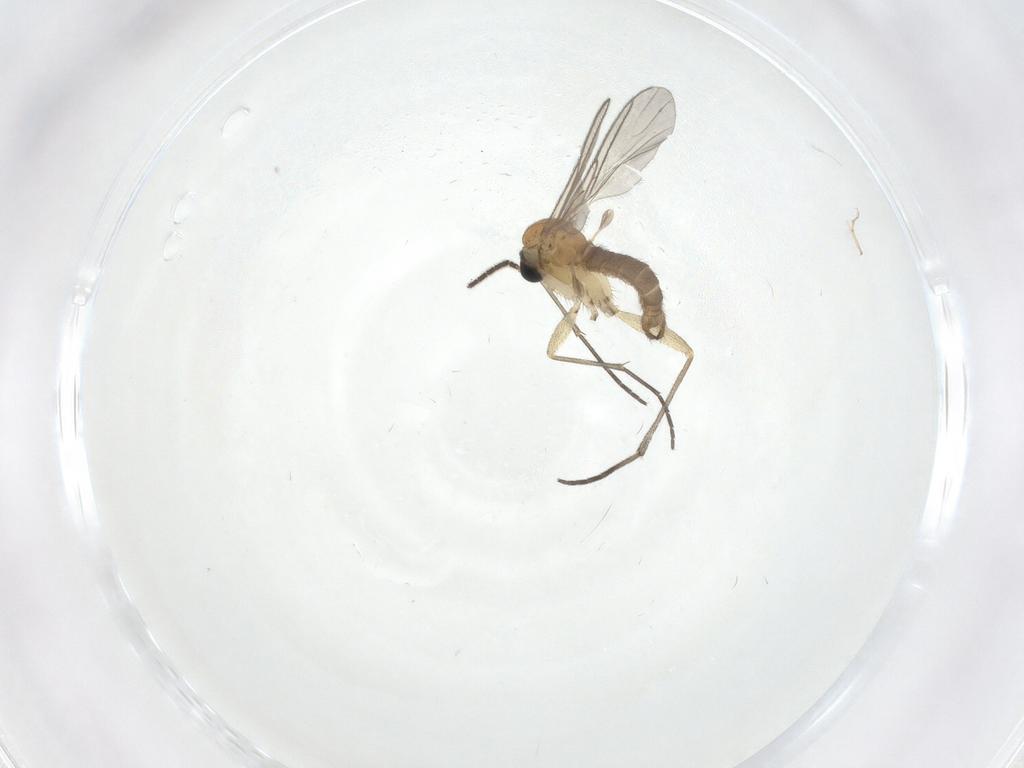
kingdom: Animalia
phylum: Arthropoda
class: Insecta
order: Diptera
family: Sciaridae
